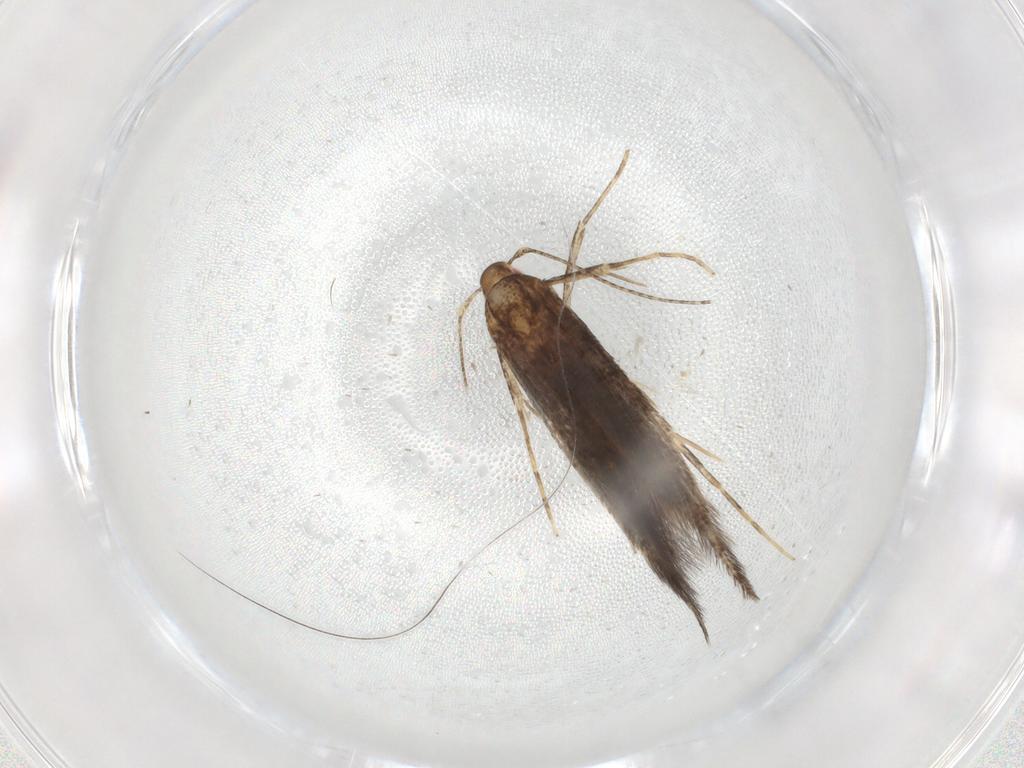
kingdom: Animalia
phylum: Arthropoda
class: Insecta
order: Lepidoptera
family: Cosmopterigidae
